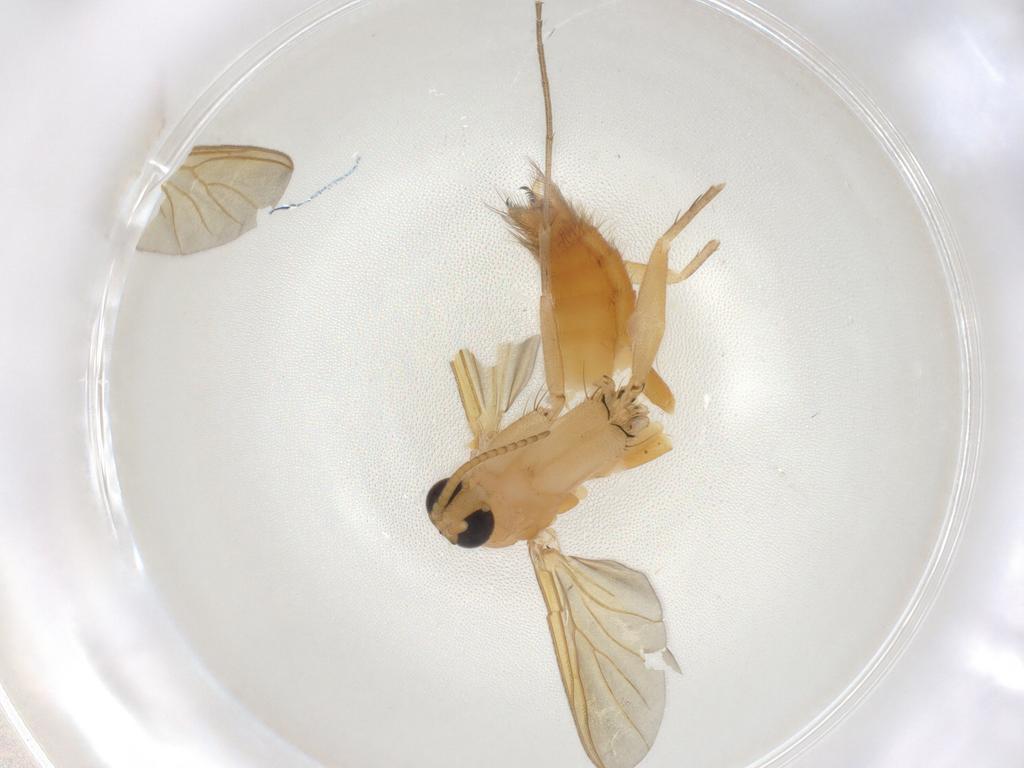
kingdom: Animalia
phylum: Arthropoda
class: Insecta
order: Diptera
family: Mycetophilidae
